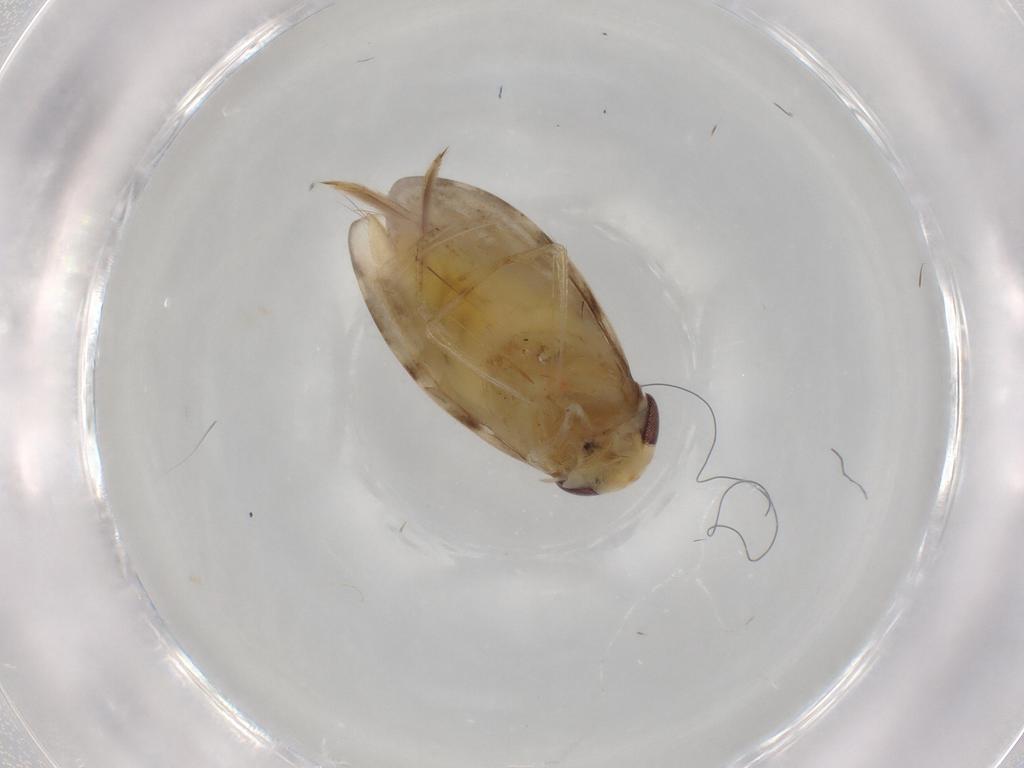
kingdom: Animalia
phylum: Arthropoda
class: Insecta
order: Hemiptera
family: Corixidae
